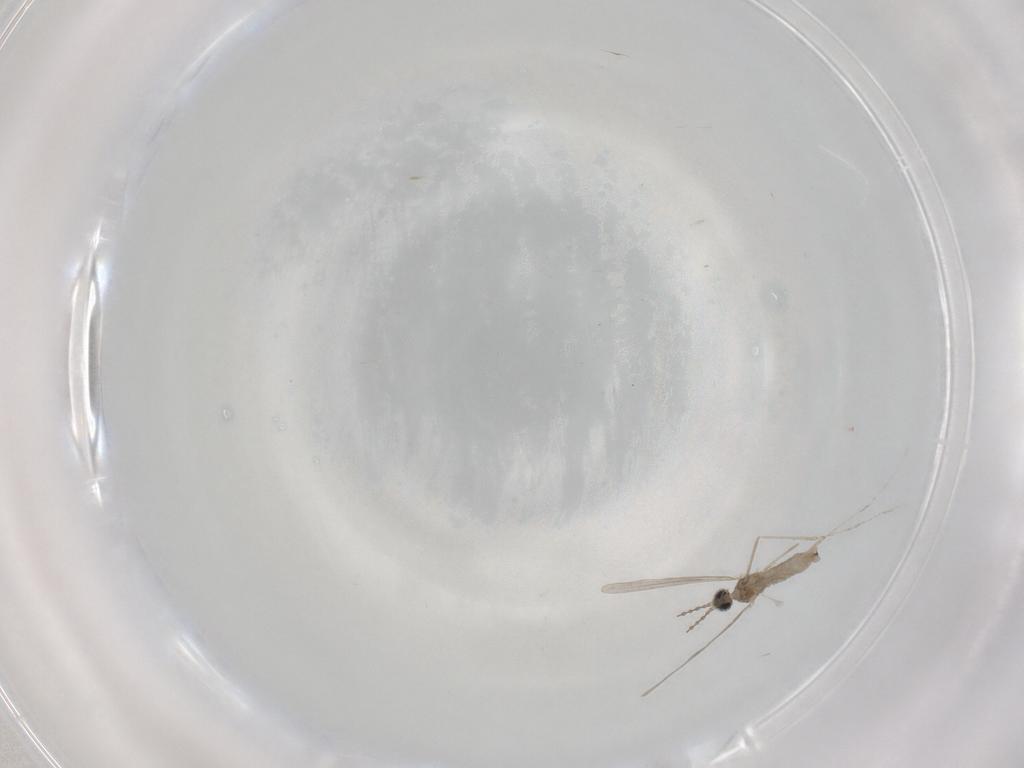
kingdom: Animalia
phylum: Arthropoda
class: Insecta
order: Diptera
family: Cecidomyiidae
